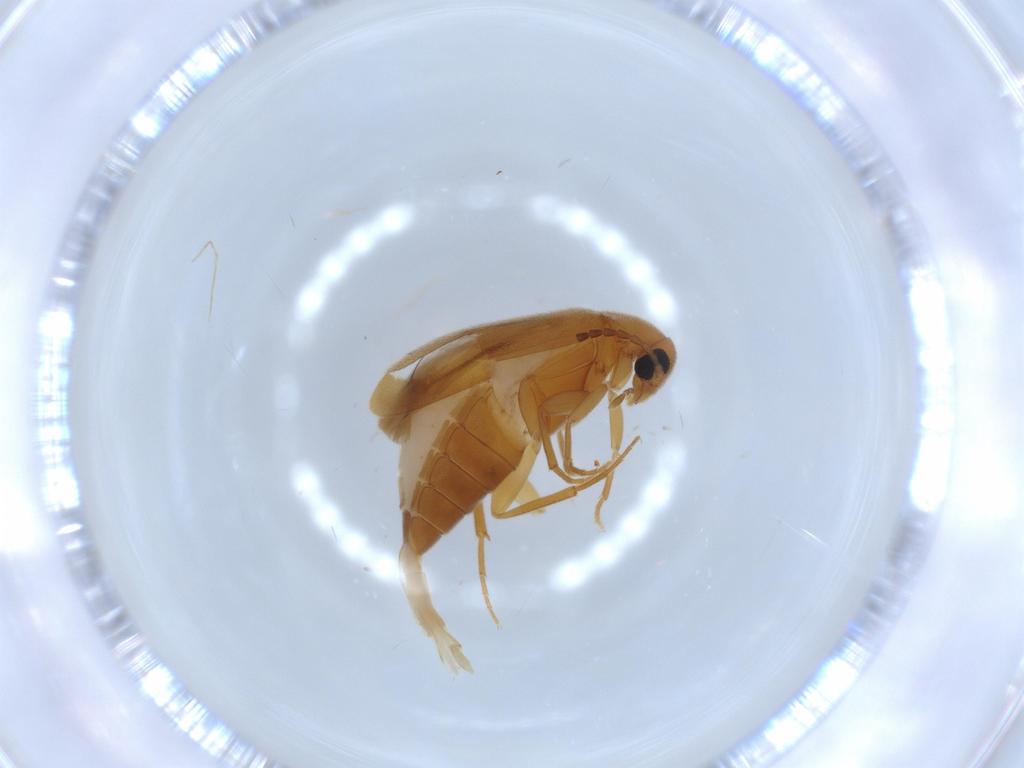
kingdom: Animalia
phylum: Arthropoda
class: Insecta
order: Coleoptera
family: Scraptiidae
